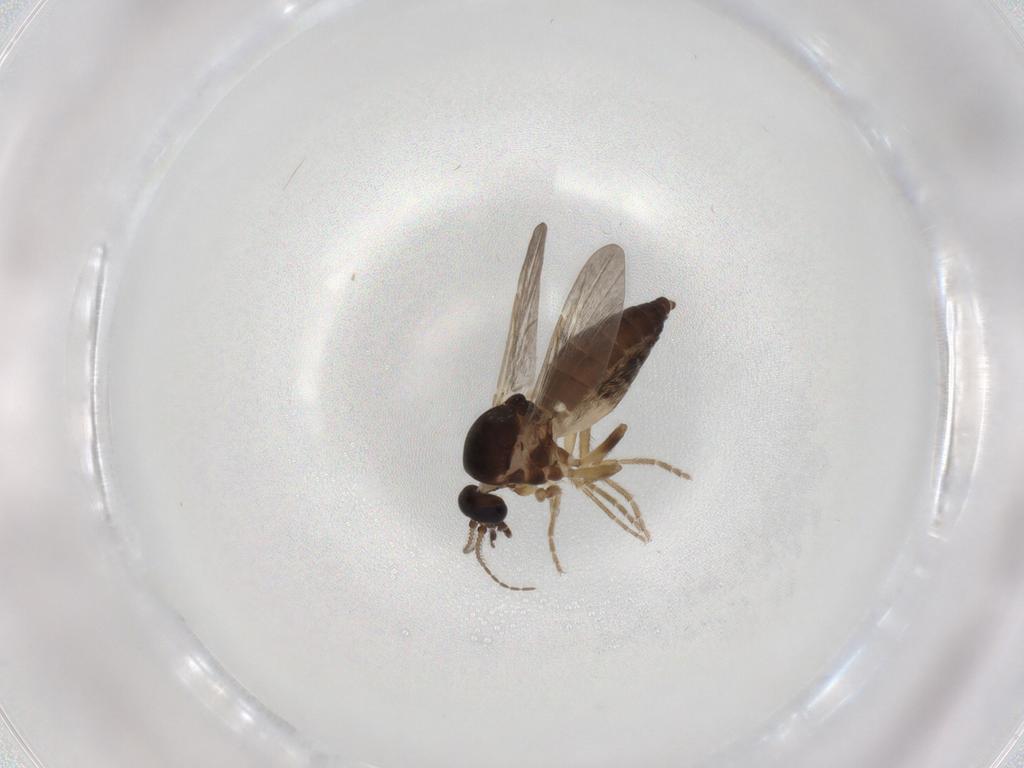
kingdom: Animalia
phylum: Arthropoda
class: Insecta
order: Diptera
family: Ceratopogonidae
